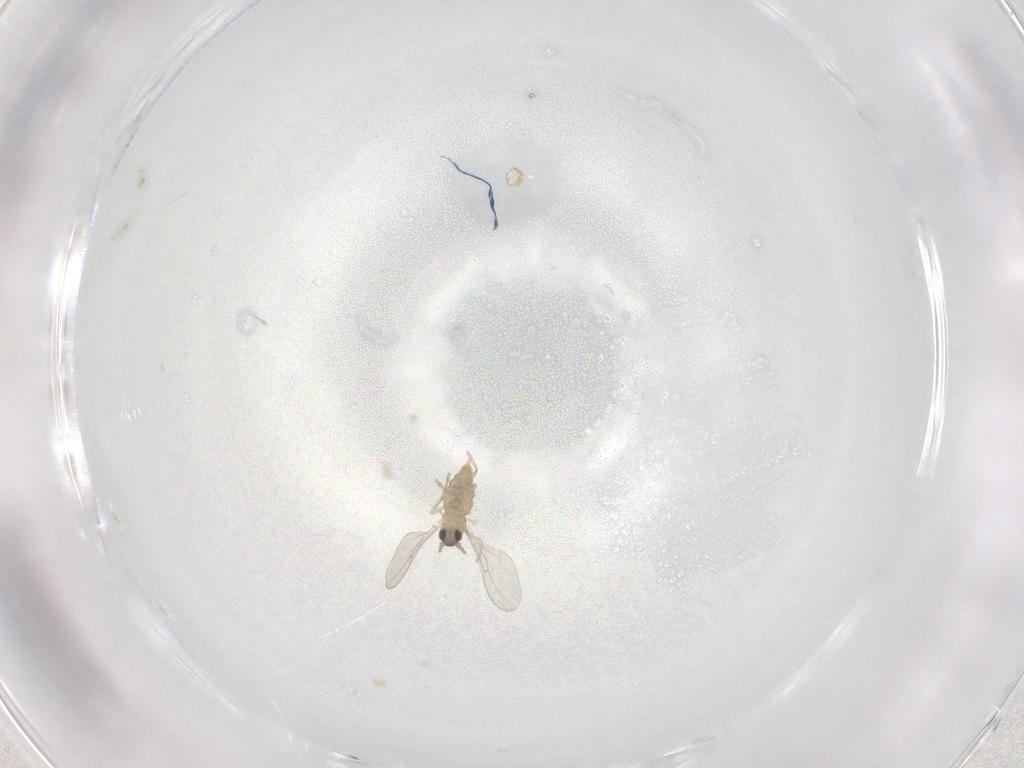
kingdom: Animalia
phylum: Arthropoda
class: Insecta
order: Diptera
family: Cecidomyiidae
